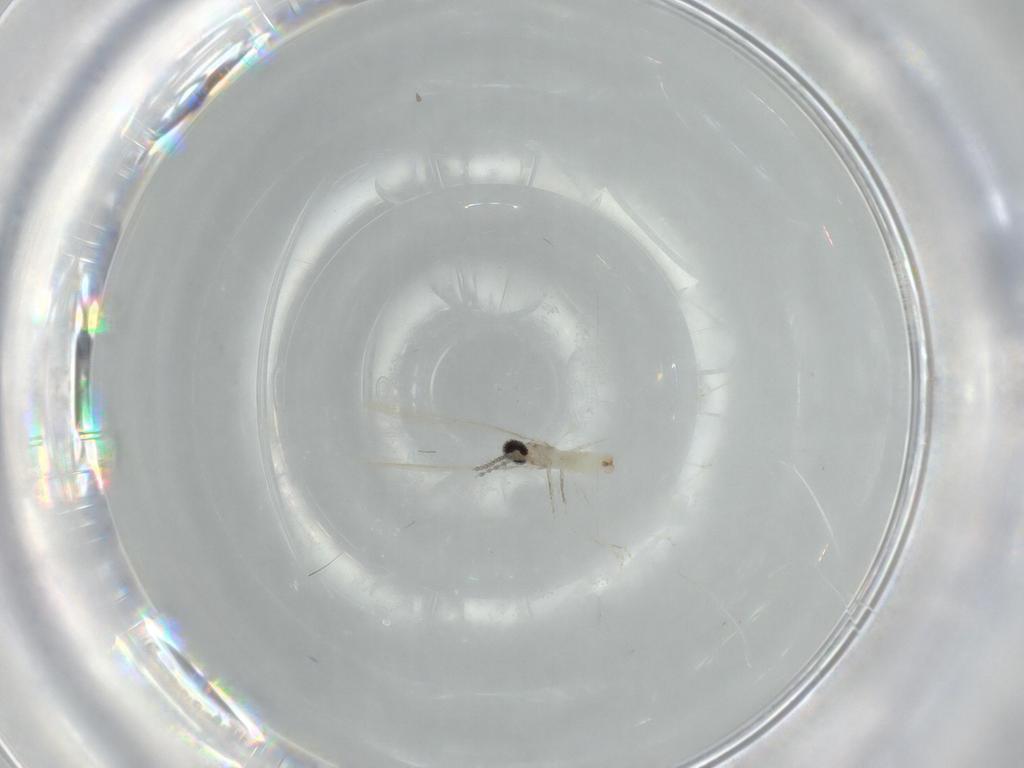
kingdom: Animalia
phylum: Arthropoda
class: Insecta
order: Diptera
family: Cecidomyiidae
